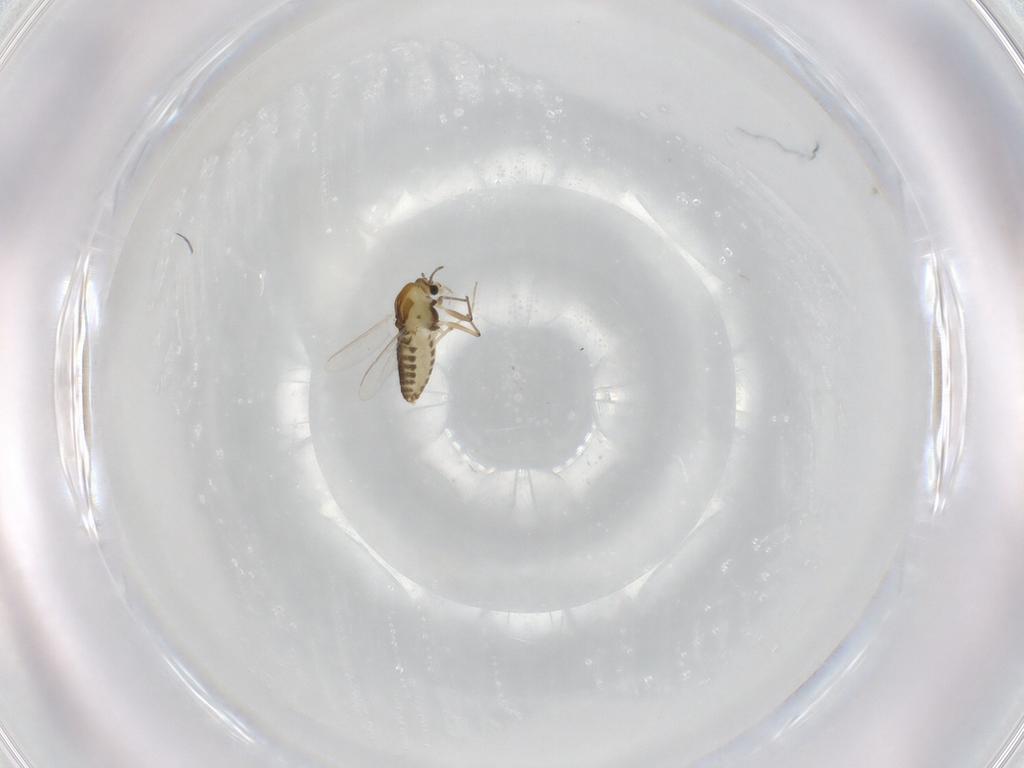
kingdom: Animalia
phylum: Arthropoda
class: Insecta
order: Diptera
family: Chironomidae
